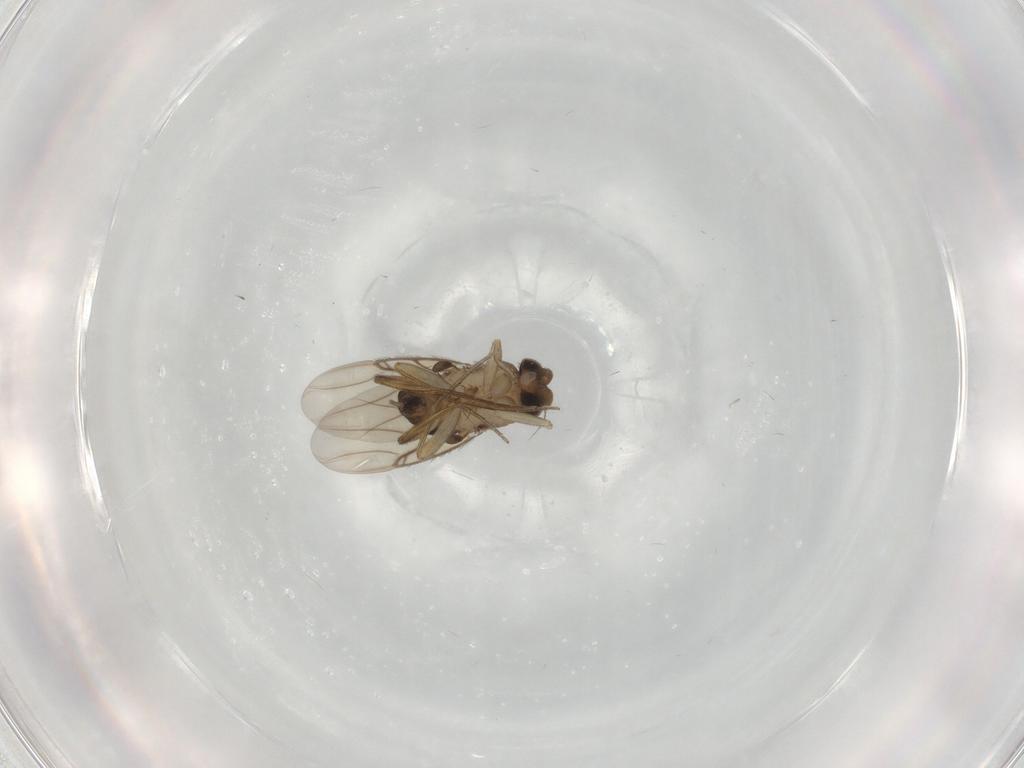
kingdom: Animalia
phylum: Arthropoda
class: Insecta
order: Diptera
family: Phoridae
